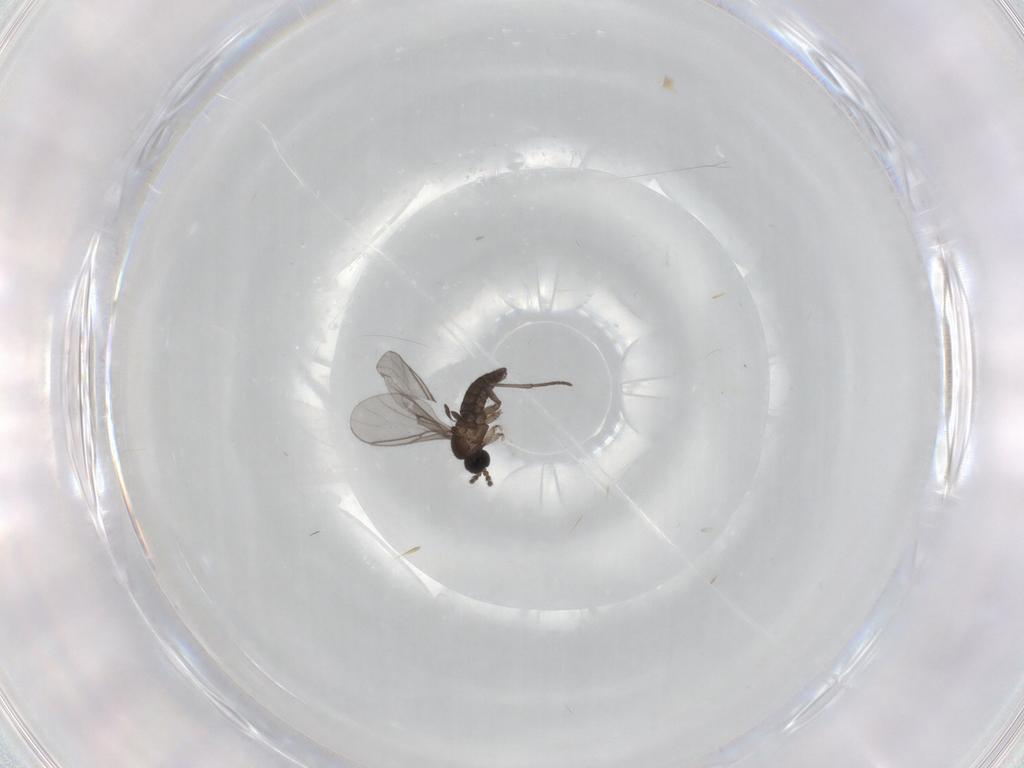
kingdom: Animalia
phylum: Arthropoda
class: Insecta
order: Diptera
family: Sciaridae
